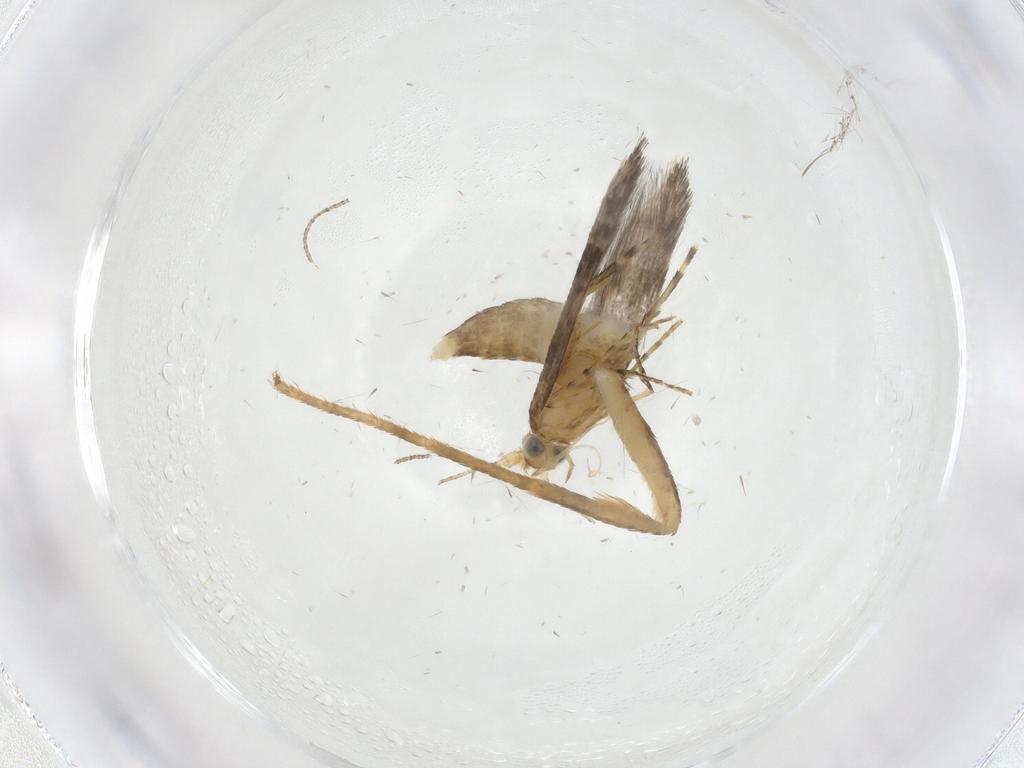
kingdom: Animalia
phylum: Arthropoda
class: Insecta
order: Lepidoptera
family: Argyresthiidae
